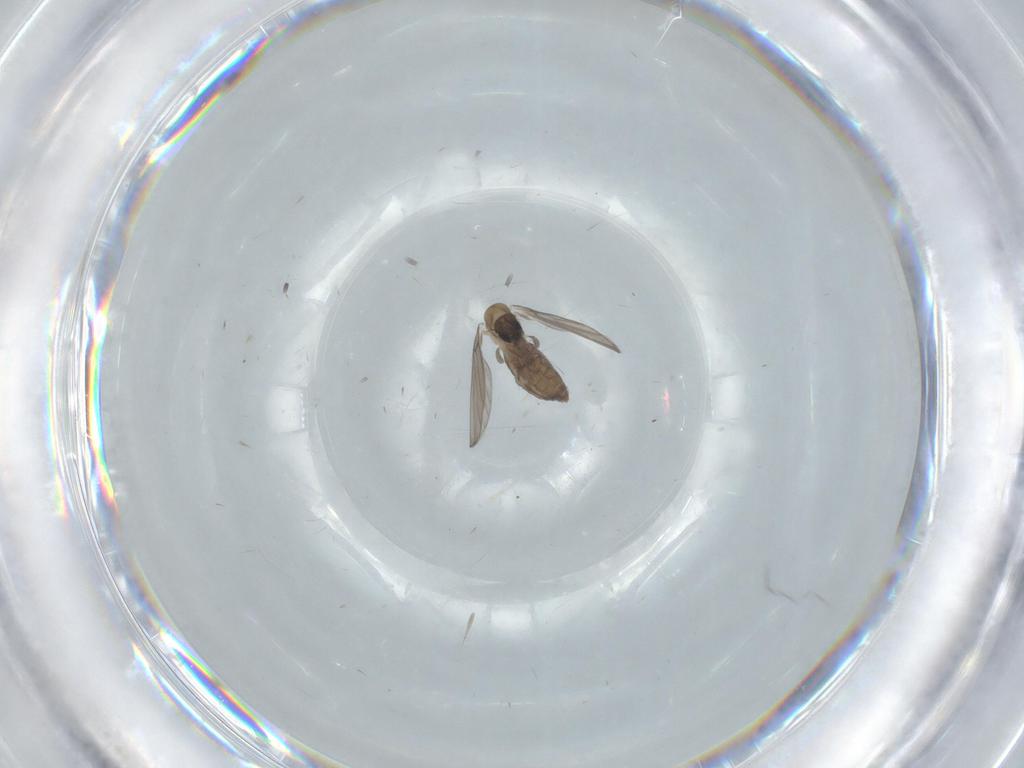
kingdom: Animalia
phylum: Arthropoda
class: Insecta
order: Diptera
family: Psychodidae
